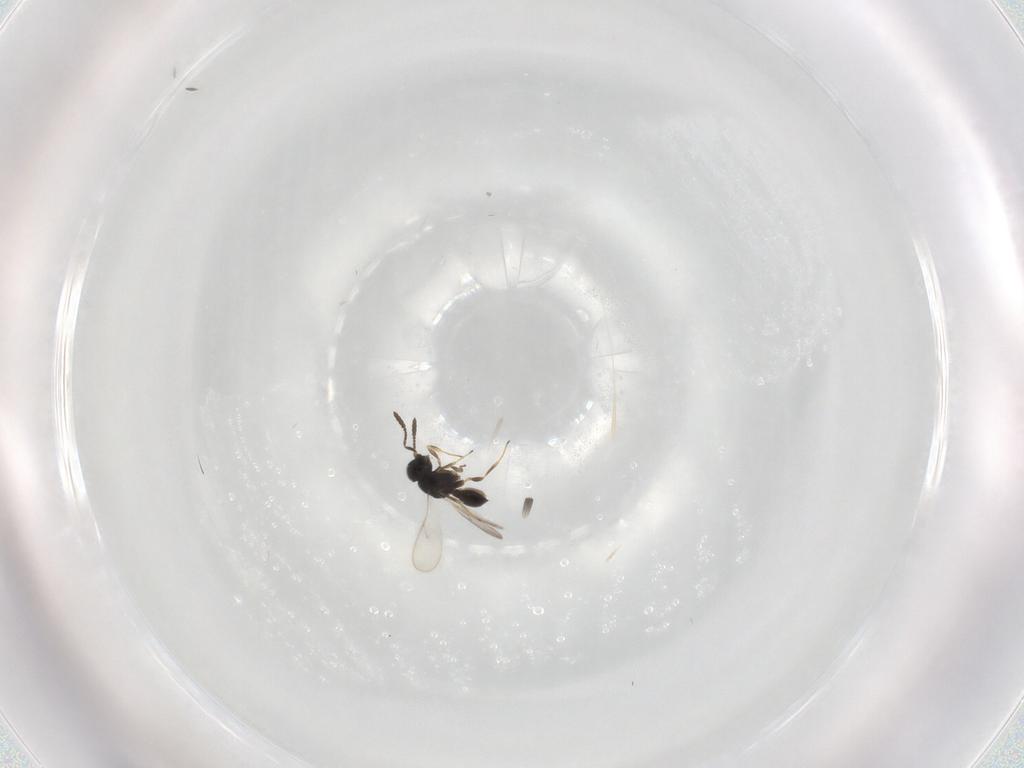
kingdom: Animalia
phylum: Arthropoda
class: Insecta
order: Hymenoptera
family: Scelionidae
